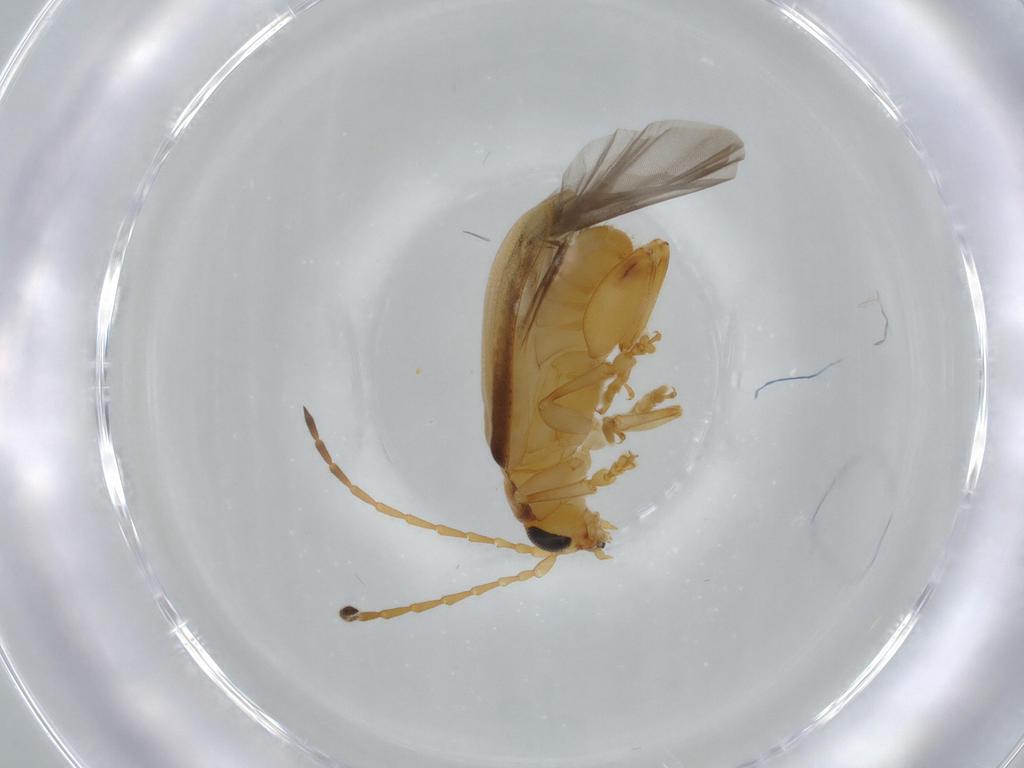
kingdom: Animalia
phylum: Arthropoda
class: Insecta
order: Coleoptera
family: Chrysomelidae
